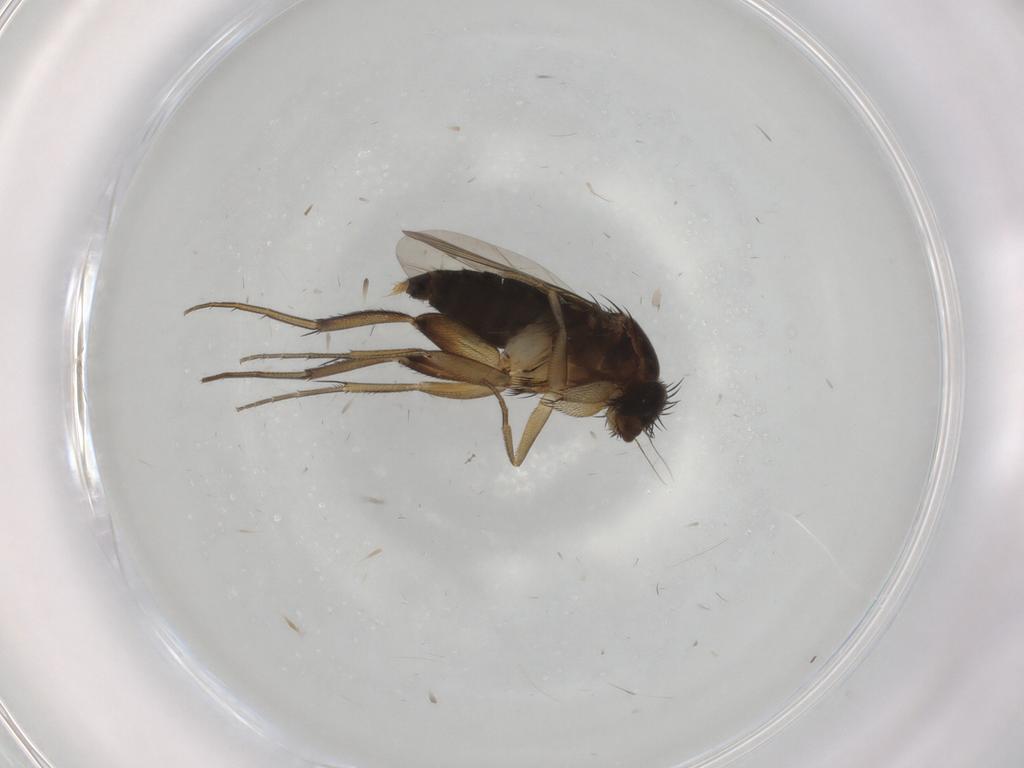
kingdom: Animalia
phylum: Arthropoda
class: Insecta
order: Diptera
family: Phoridae
